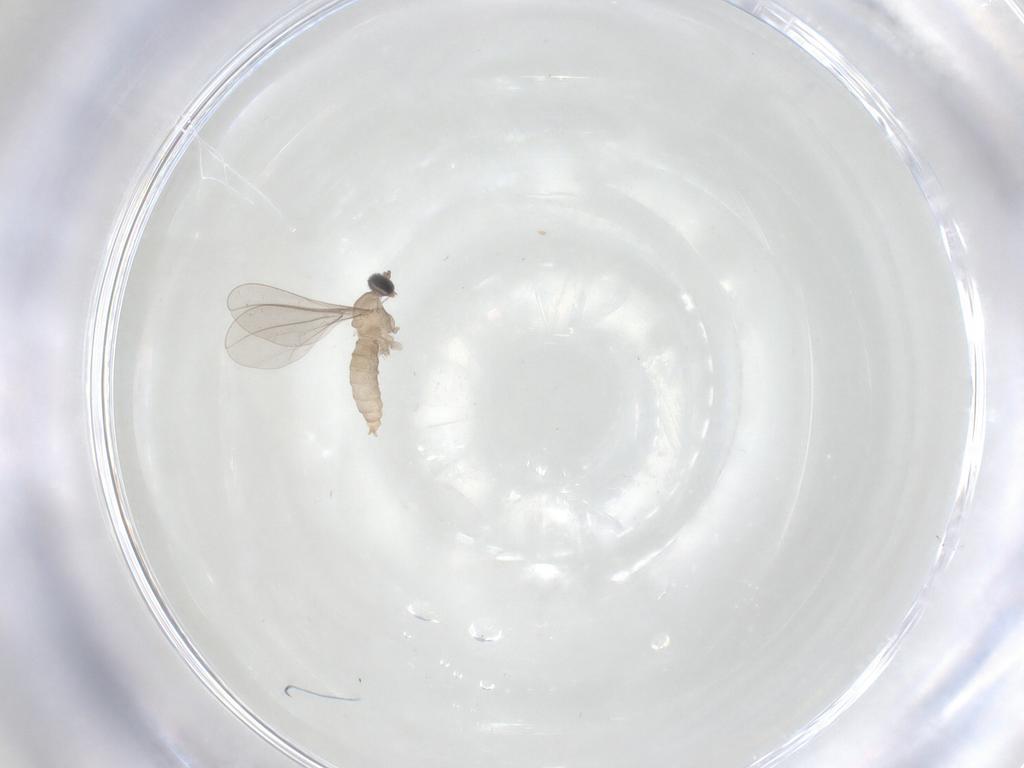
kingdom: Animalia
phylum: Arthropoda
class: Insecta
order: Diptera
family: Cecidomyiidae
